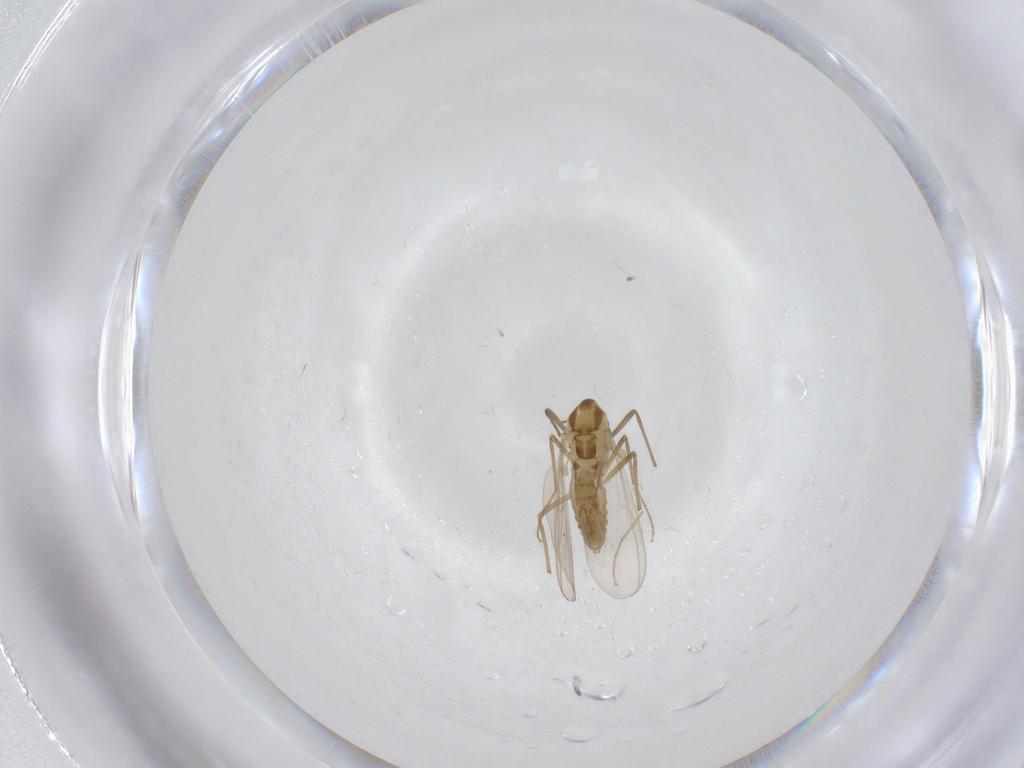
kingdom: Animalia
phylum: Arthropoda
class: Insecta
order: Diptera
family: Chironomidae
